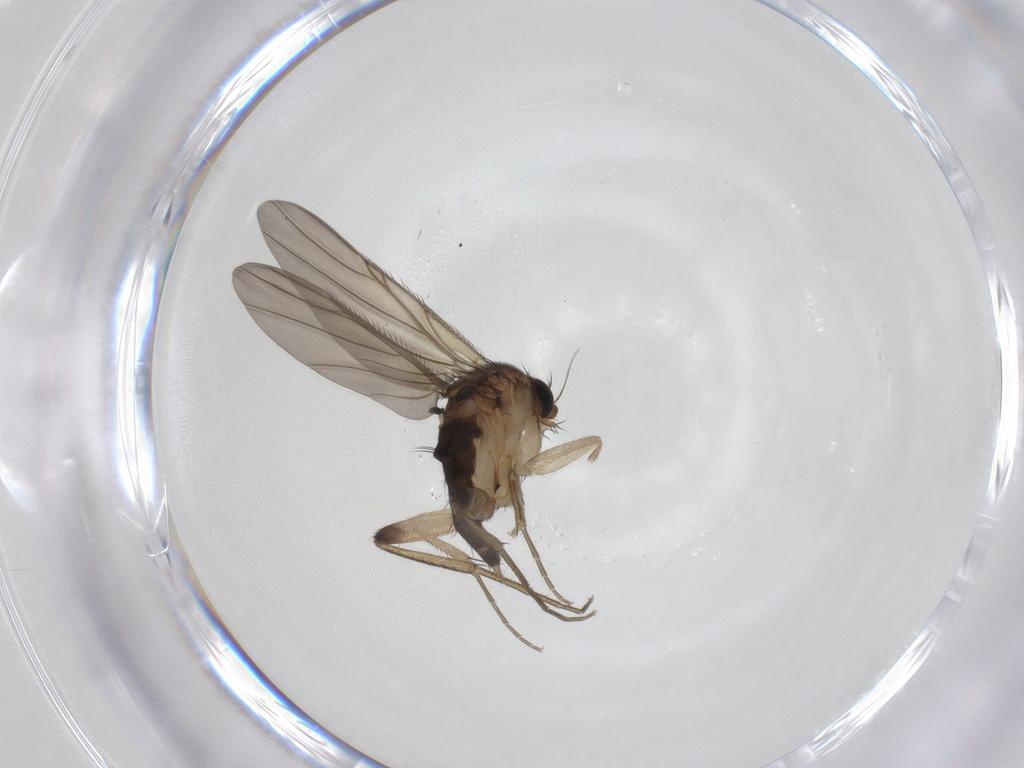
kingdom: Animalia
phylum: Arthropoda
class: Insecta
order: Diptera
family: Phoridae
